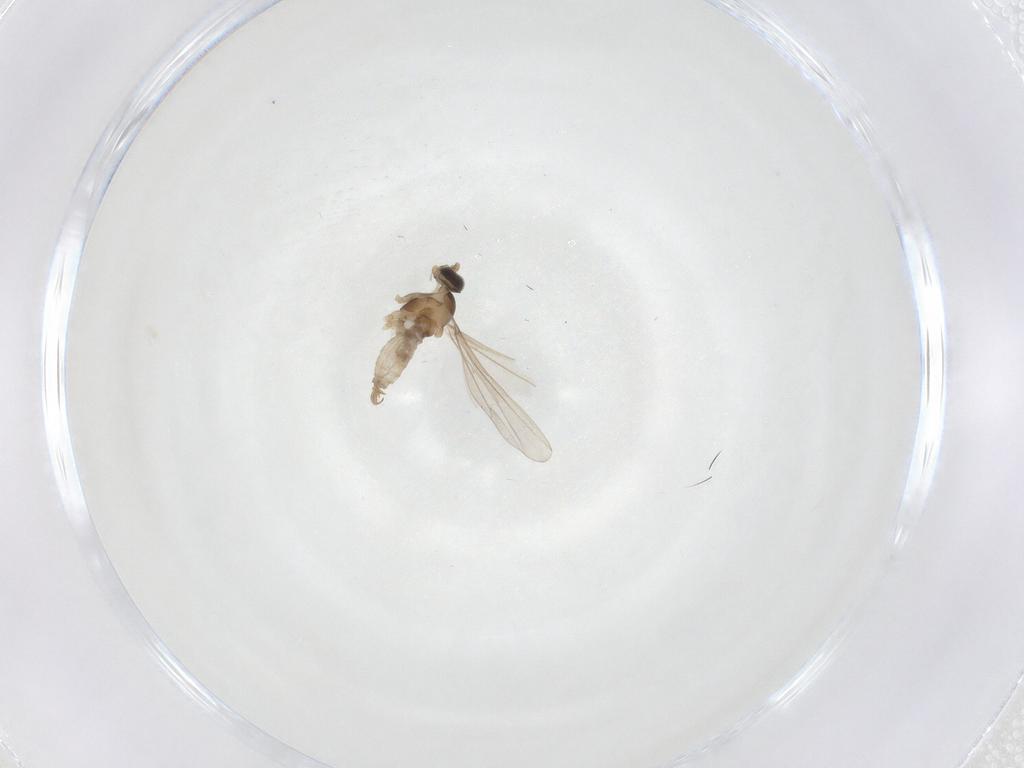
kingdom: Animalia
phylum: Arthropoda
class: Insecta
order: Diptera
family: Cecidomyiidae
